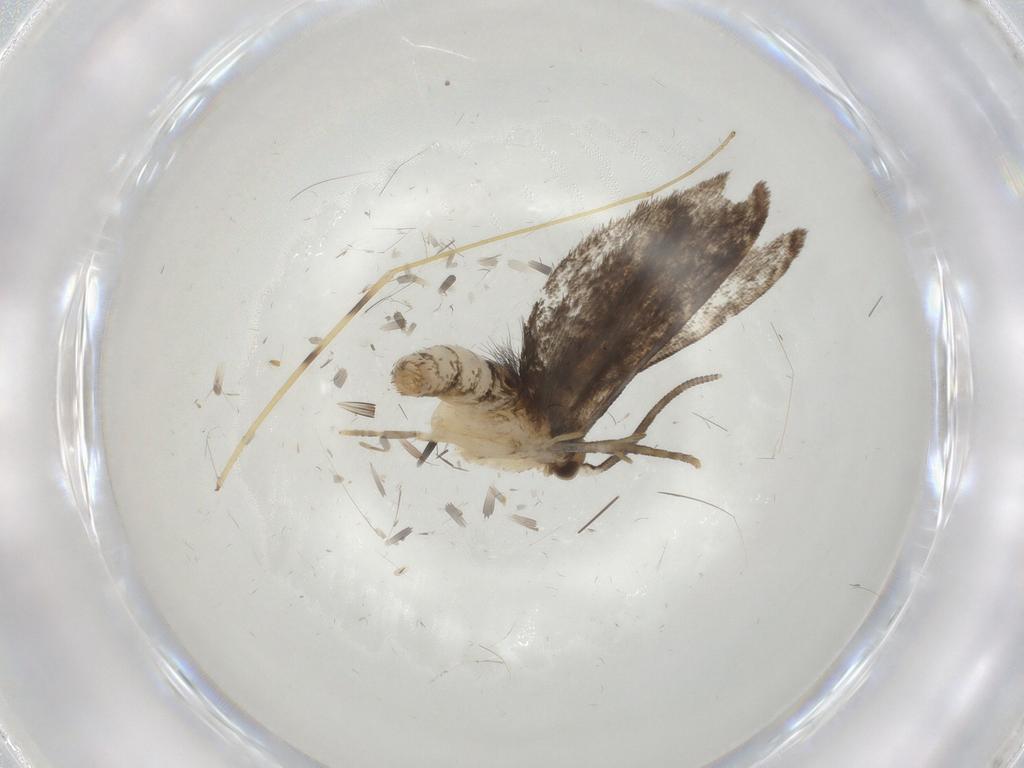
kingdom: Animalia
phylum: Arthropoda
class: Insecta
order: Lepidoptera
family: Dryadaulidae
